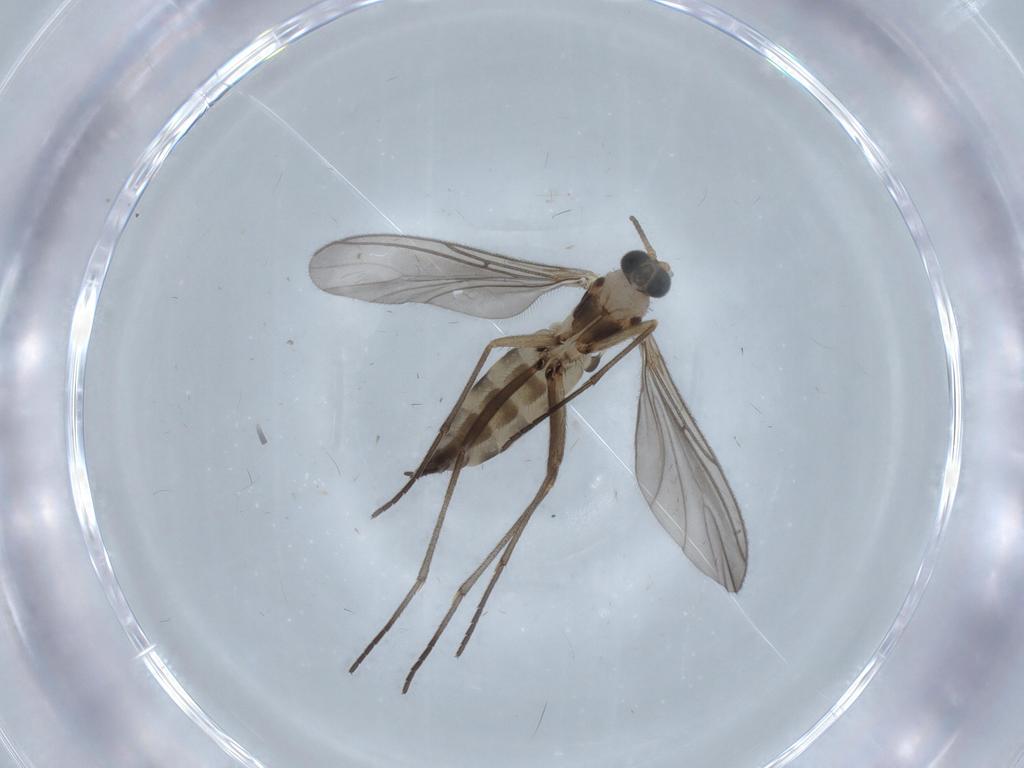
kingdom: Animalia
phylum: Arthropoda
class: Insecta
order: Diptera
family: Sciaridae
